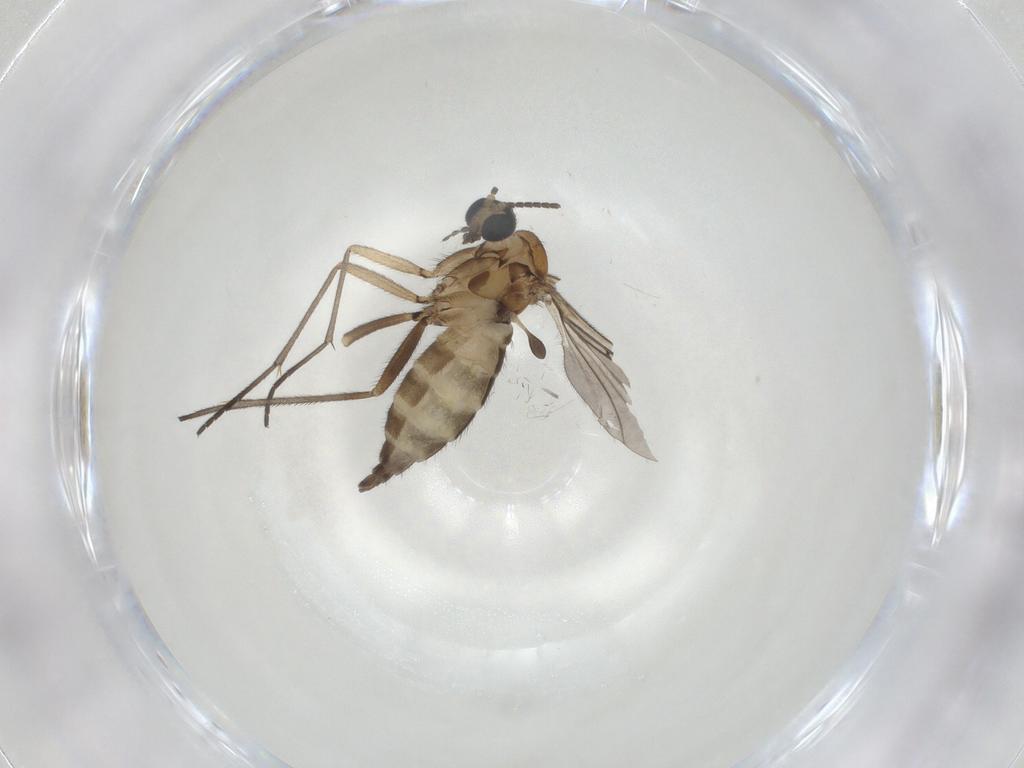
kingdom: Animalia
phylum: Arthropoda
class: Insecta
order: Diptera
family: Sciaridae
